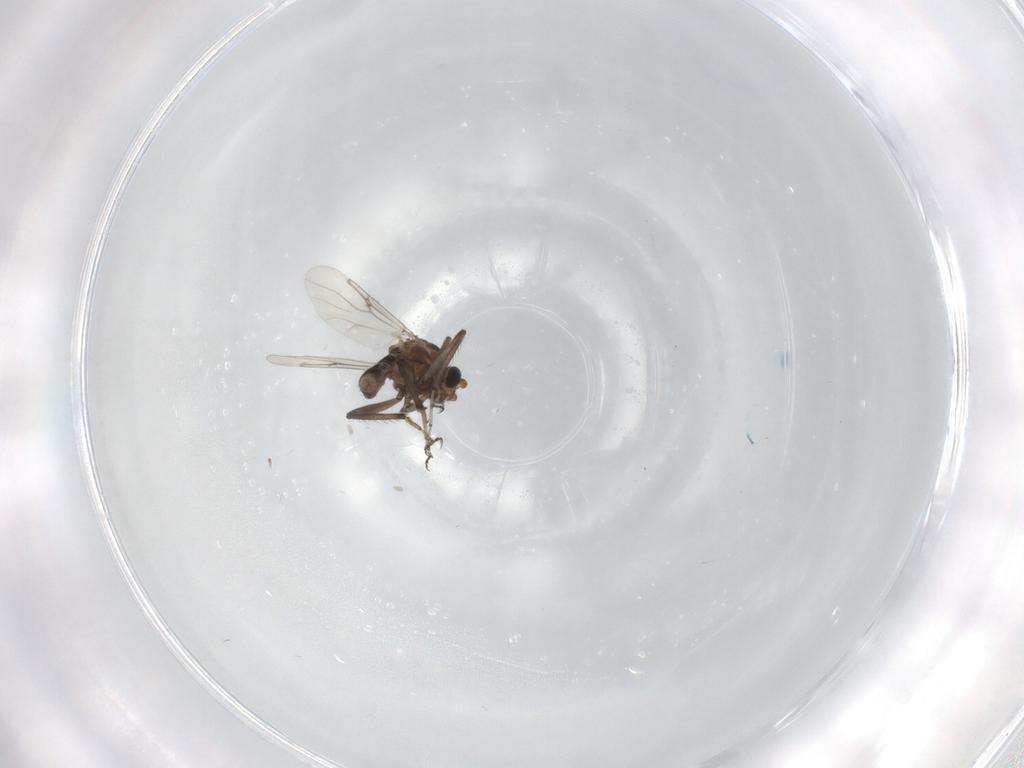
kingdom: Animalia
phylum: Arthropoda
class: Insecta
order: Diptera
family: Ceratopogonidae
